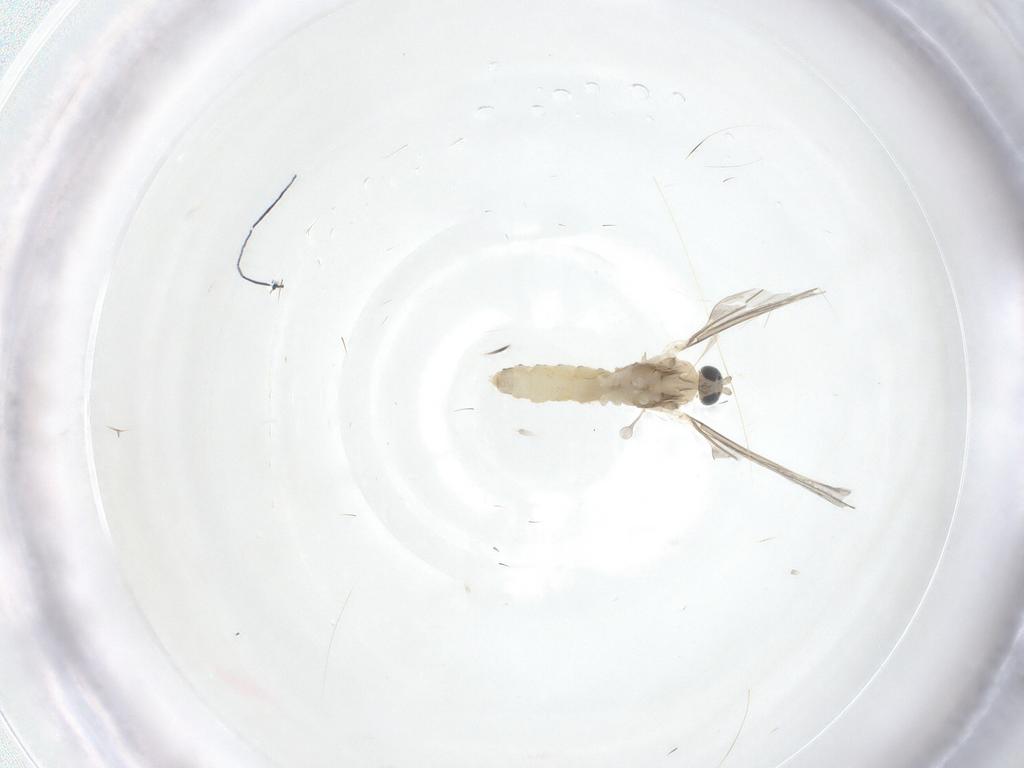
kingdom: Animalia
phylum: Arthropoda
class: Insecta
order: Diptera
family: Cecidomyiidae
